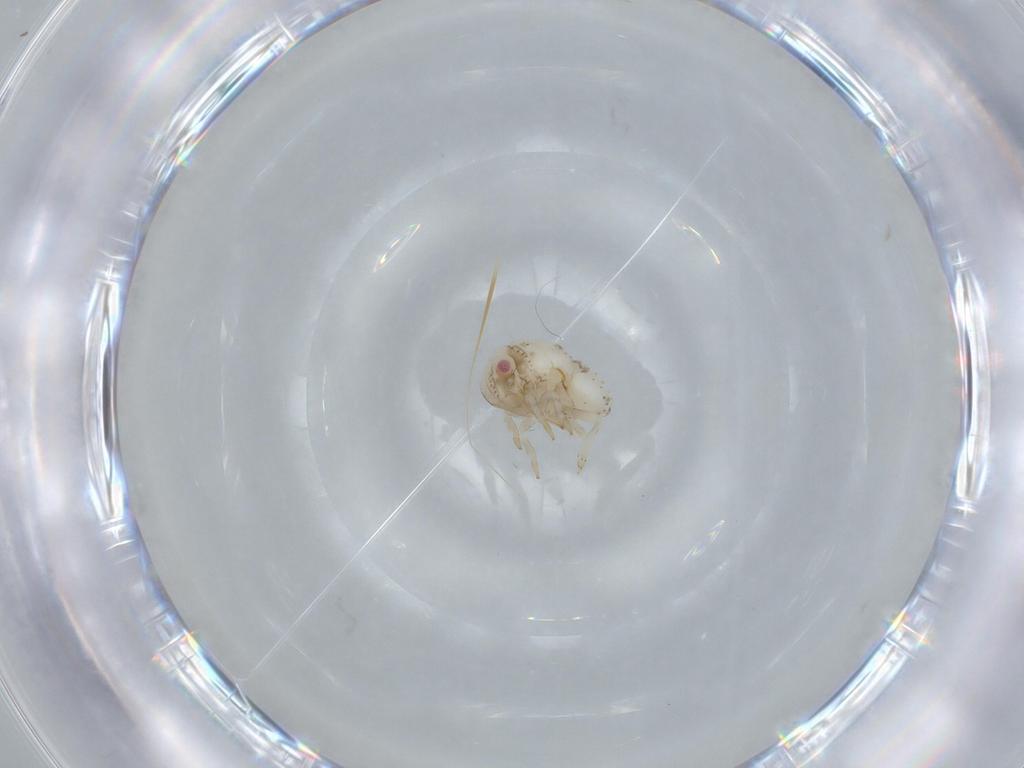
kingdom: Animalia
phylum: Arthropoda
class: Insecta
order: Hemiptera
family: Acanaloniidae
